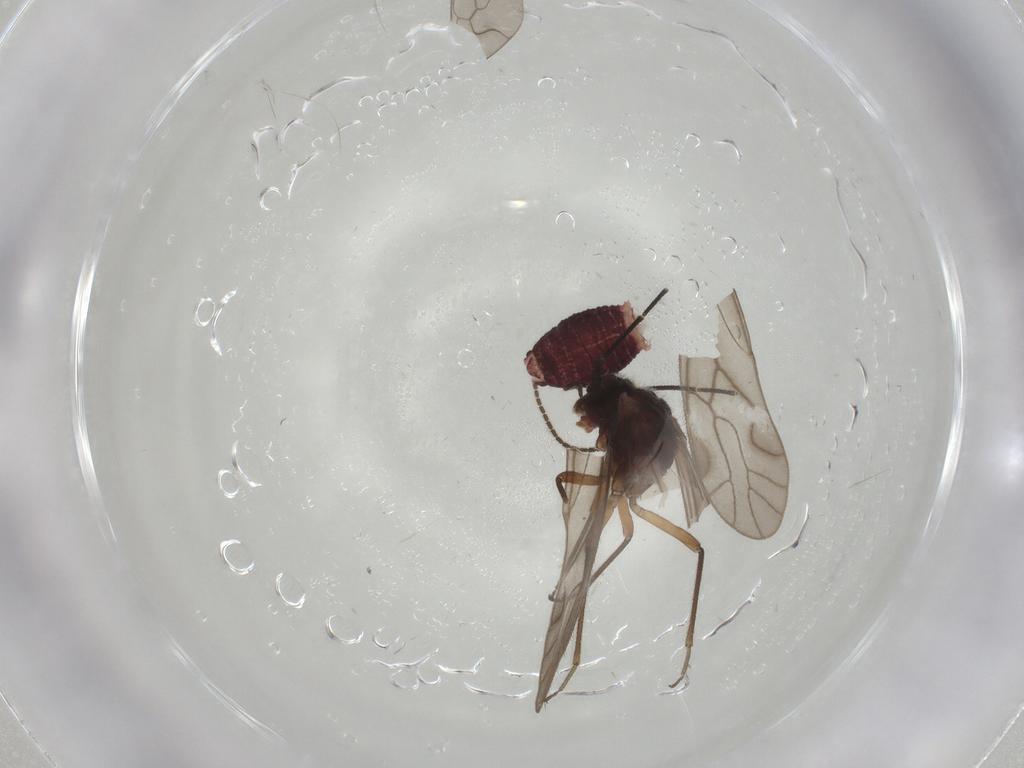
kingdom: Animalia
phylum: Arthropoda
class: Insecta
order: Psocodea
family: Trichopsocidae
